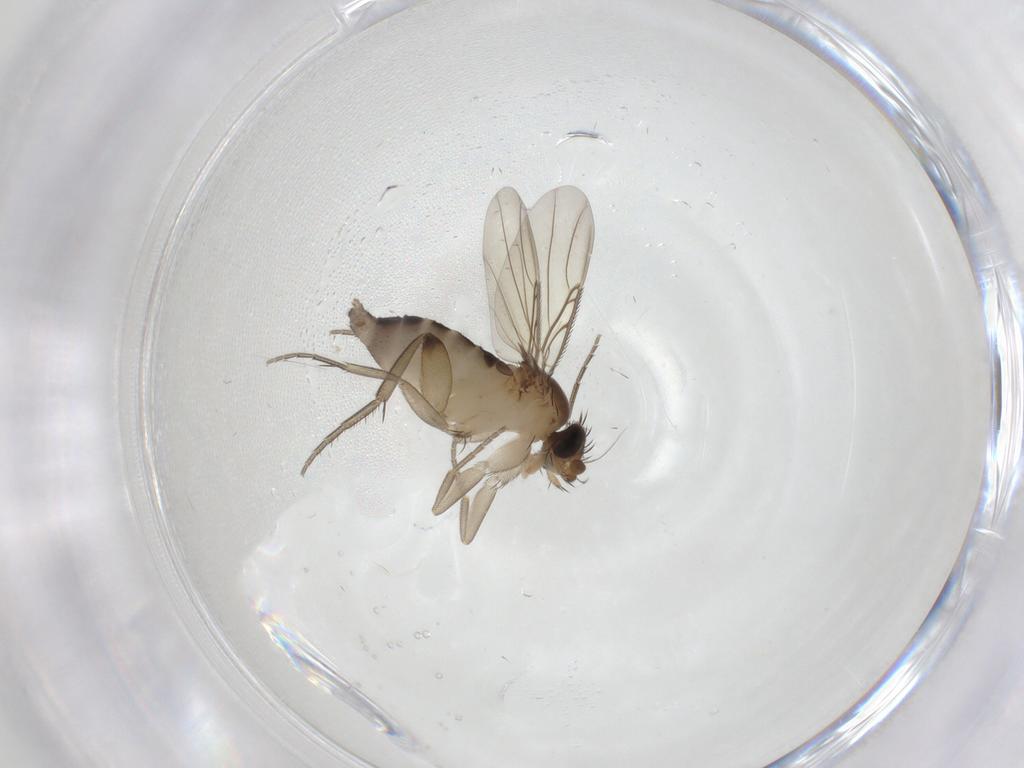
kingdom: Animalia
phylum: Arthropoda
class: Insecta
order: Diptera
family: Phoridae
